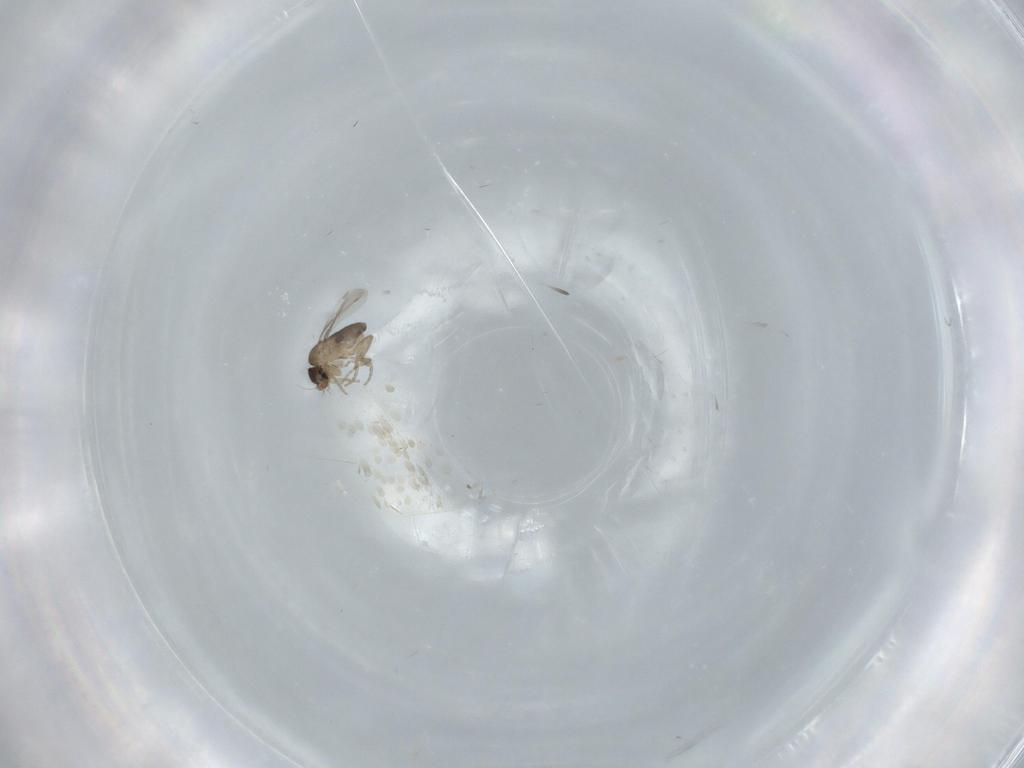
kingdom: Animalia
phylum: Arthropoda
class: Insecta
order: Diptera
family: Phoridae
